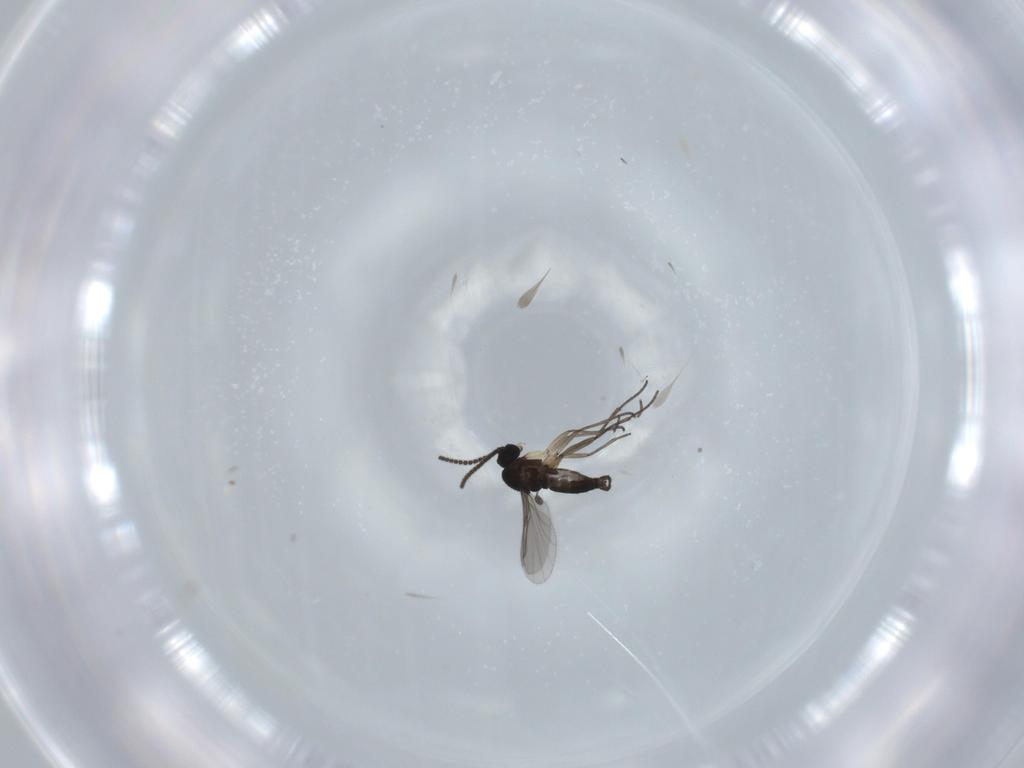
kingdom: Animalia
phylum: Arthropoda
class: Insecta
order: Diptera
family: Sciaridae
